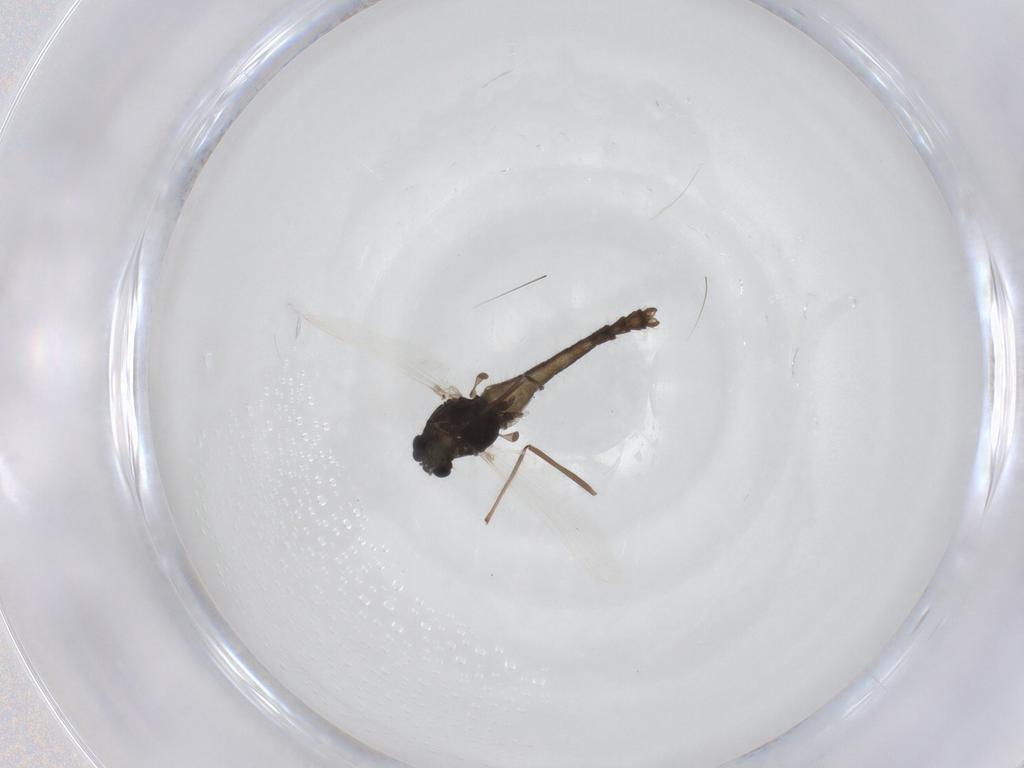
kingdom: Animalia
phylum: Arthropoda
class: Insecta
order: Diptera
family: Chironomidae
